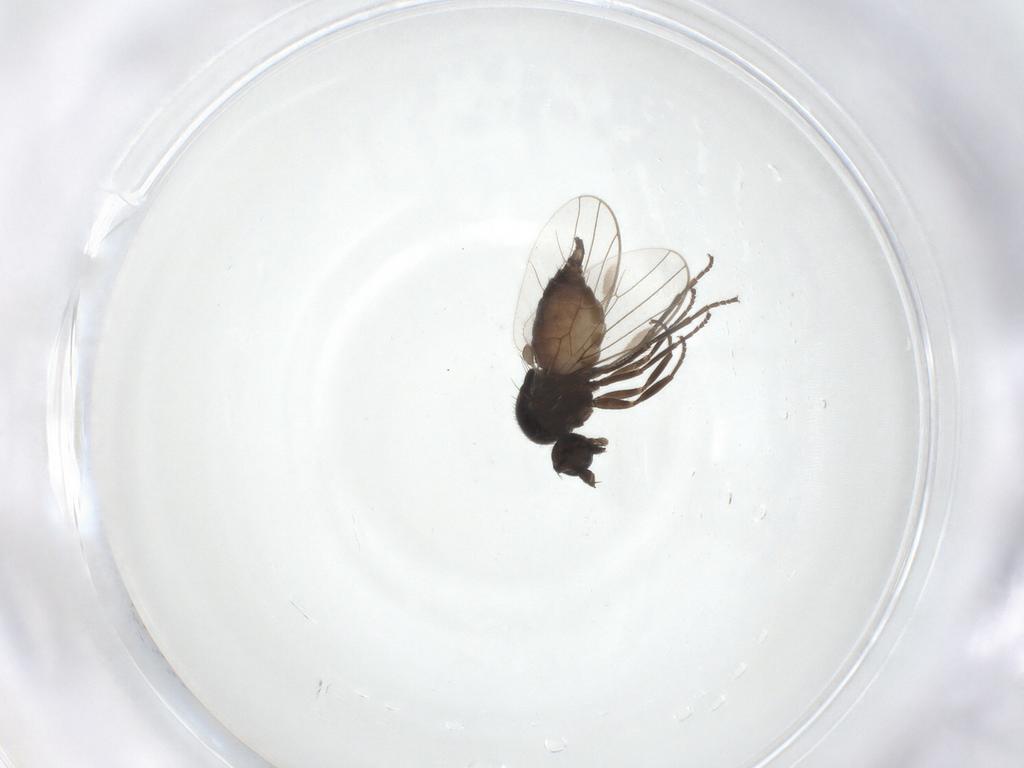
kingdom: Animalia
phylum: Arthropoda
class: Insecta
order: Diptera
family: Hybotidae
